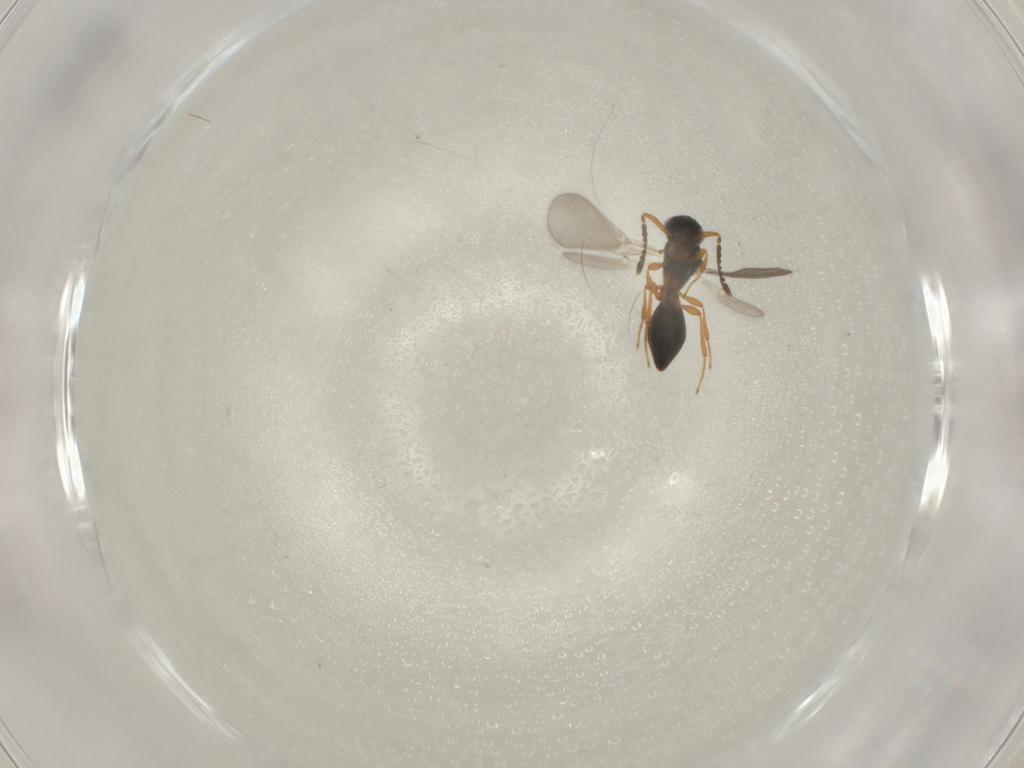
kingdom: Animalia
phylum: Arthropoda
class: Insecta
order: Hymenoptera
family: Platygastridae
